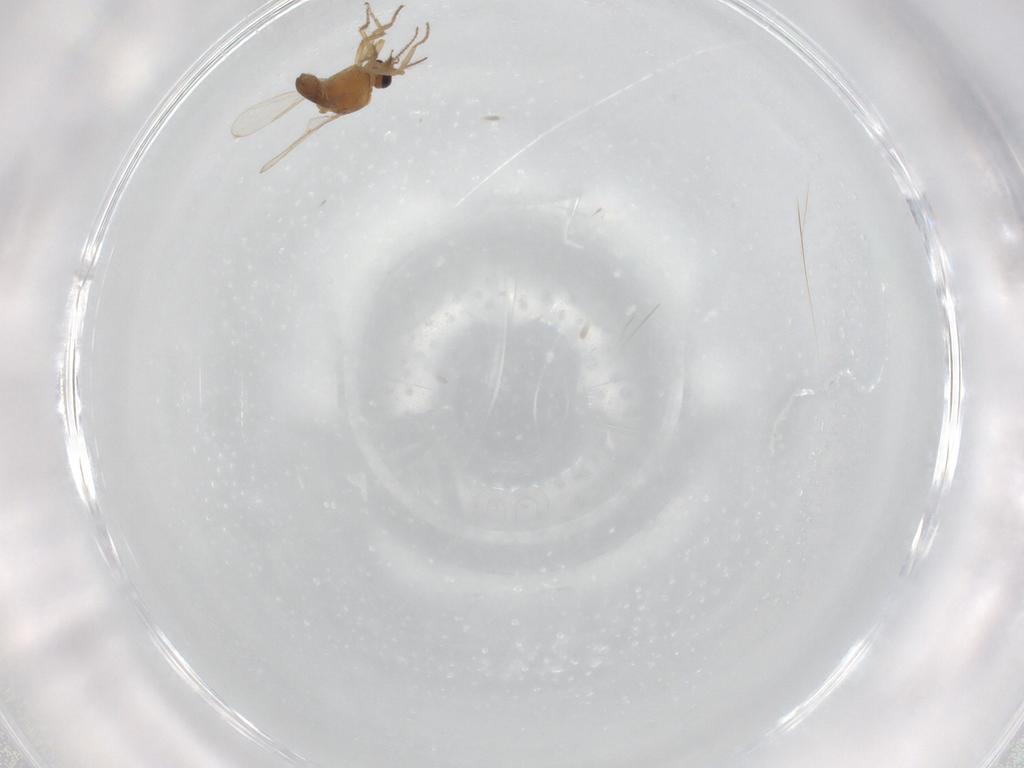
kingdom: Animalia
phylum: Arthropoda
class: Insecta
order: Diptera
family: Ceratopogonidae
